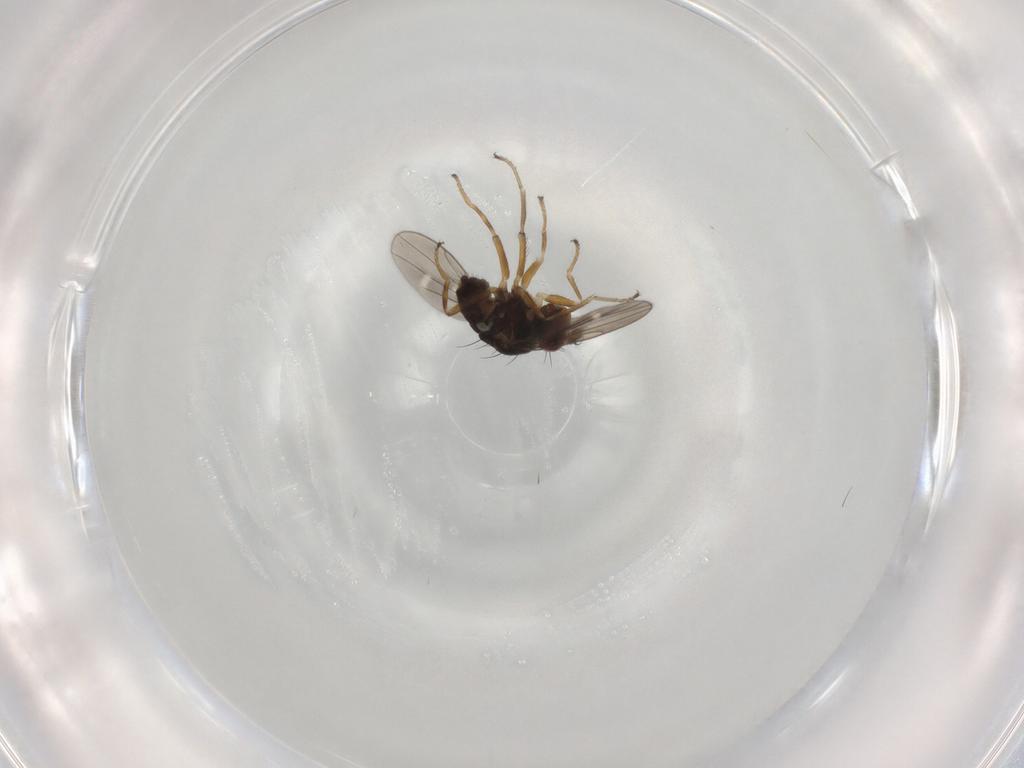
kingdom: Animalia
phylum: Arthropoda
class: Insecta
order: Diptera
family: Ephydridae
